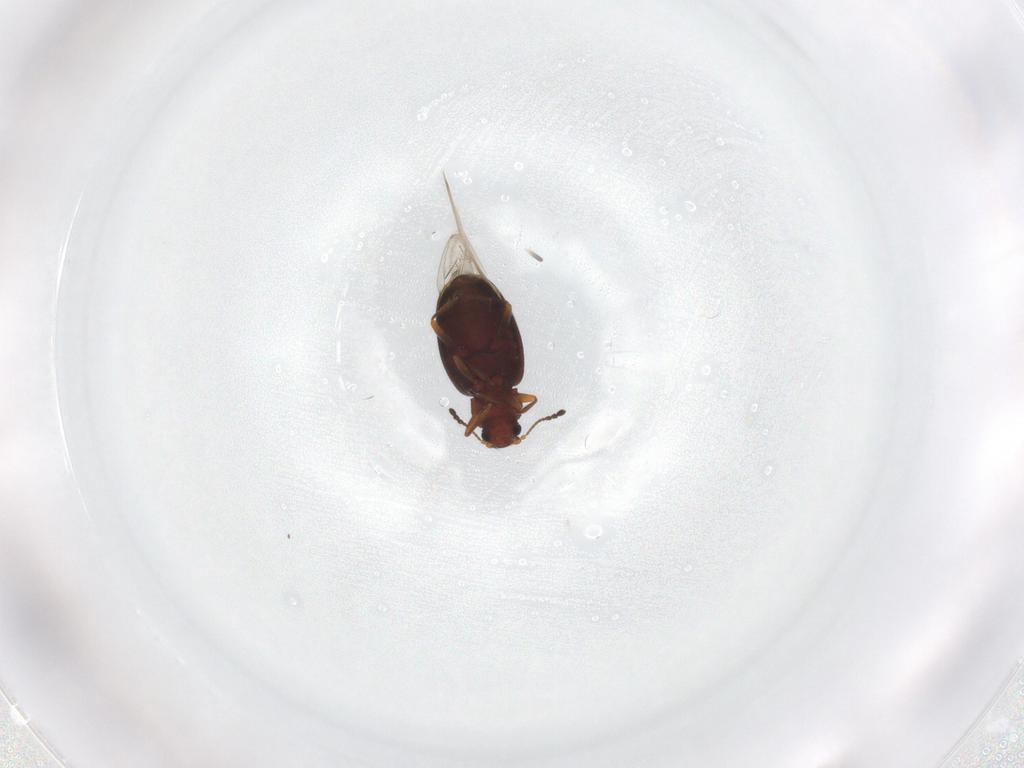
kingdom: Animalia
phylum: Arthropoda
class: Insecta
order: Coleoptera
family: Latridiidae
